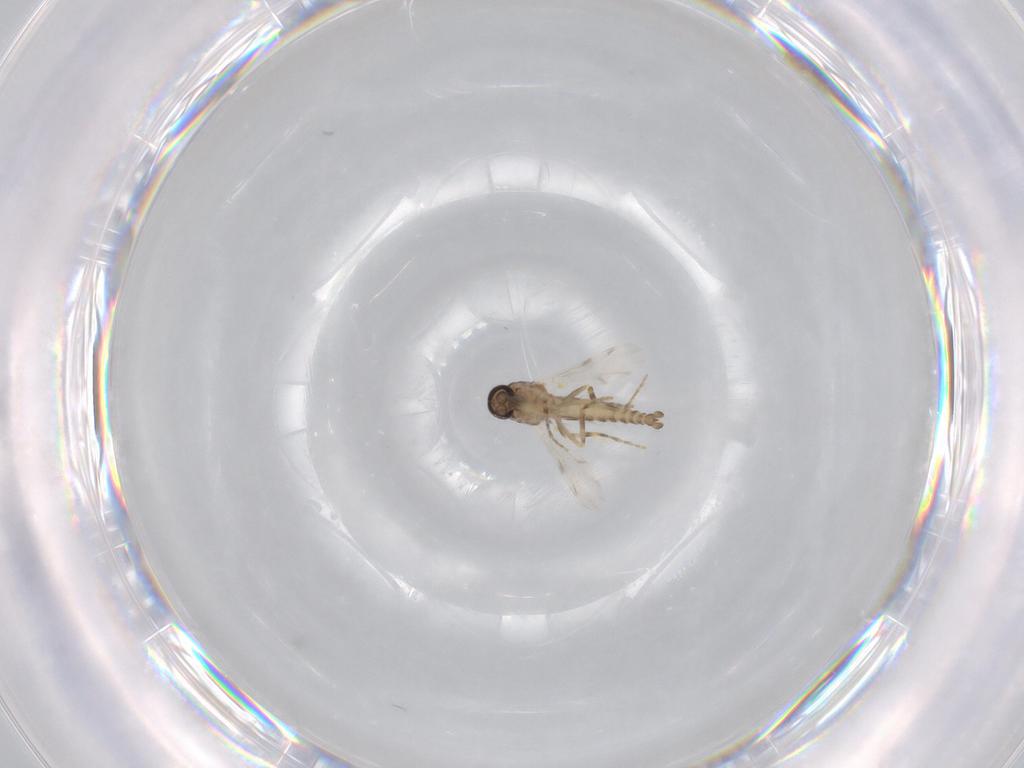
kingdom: Animalia
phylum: Arthropoda
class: Insecta
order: Diptera
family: Ceratopogonidae
